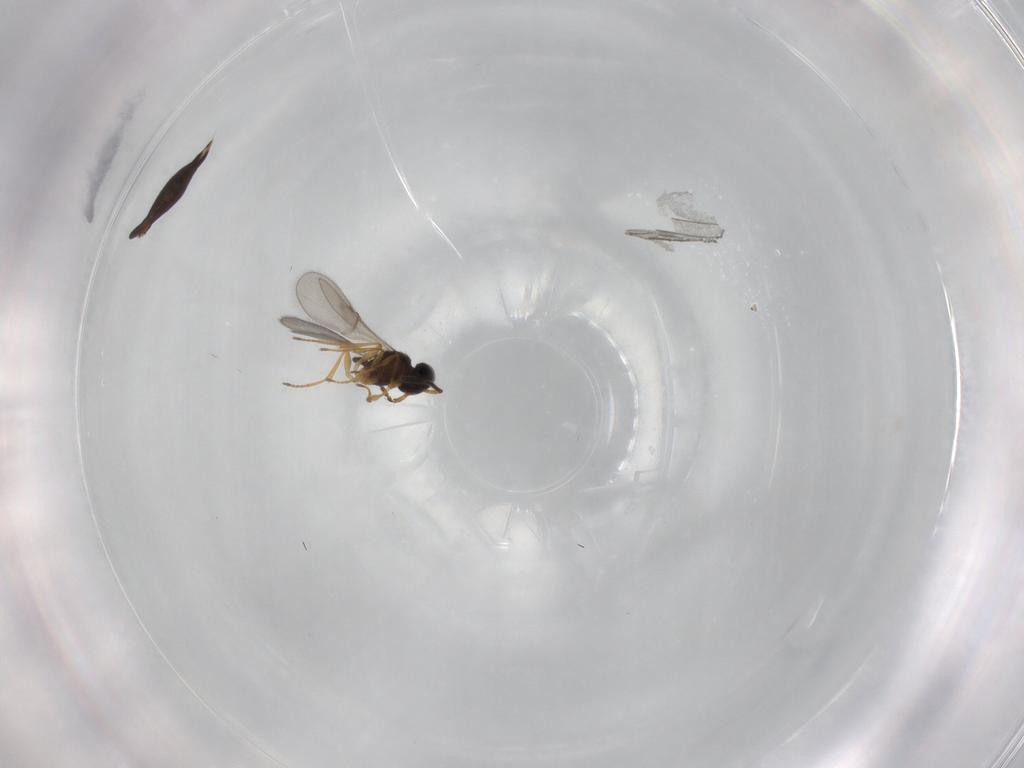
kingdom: Animalia
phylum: Arthropoda
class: Insecta
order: Hymenoptera
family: Scelionidae
